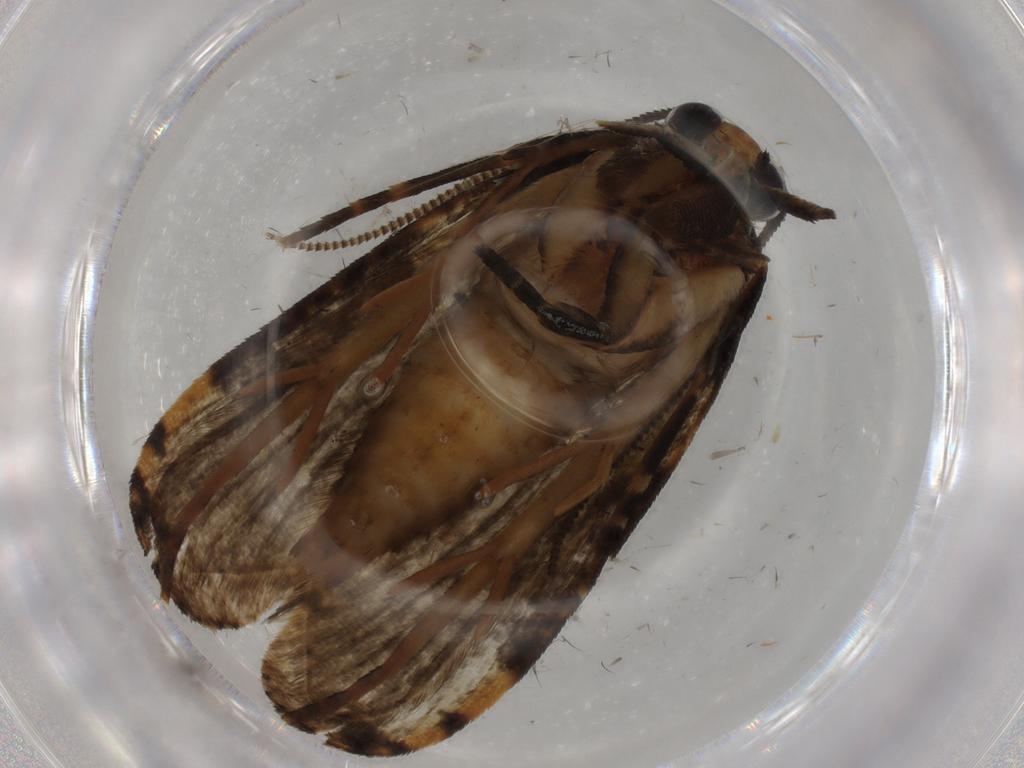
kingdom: Animalia
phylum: Arthropoda
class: Insecta
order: Lepidoptera
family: Tineidae
